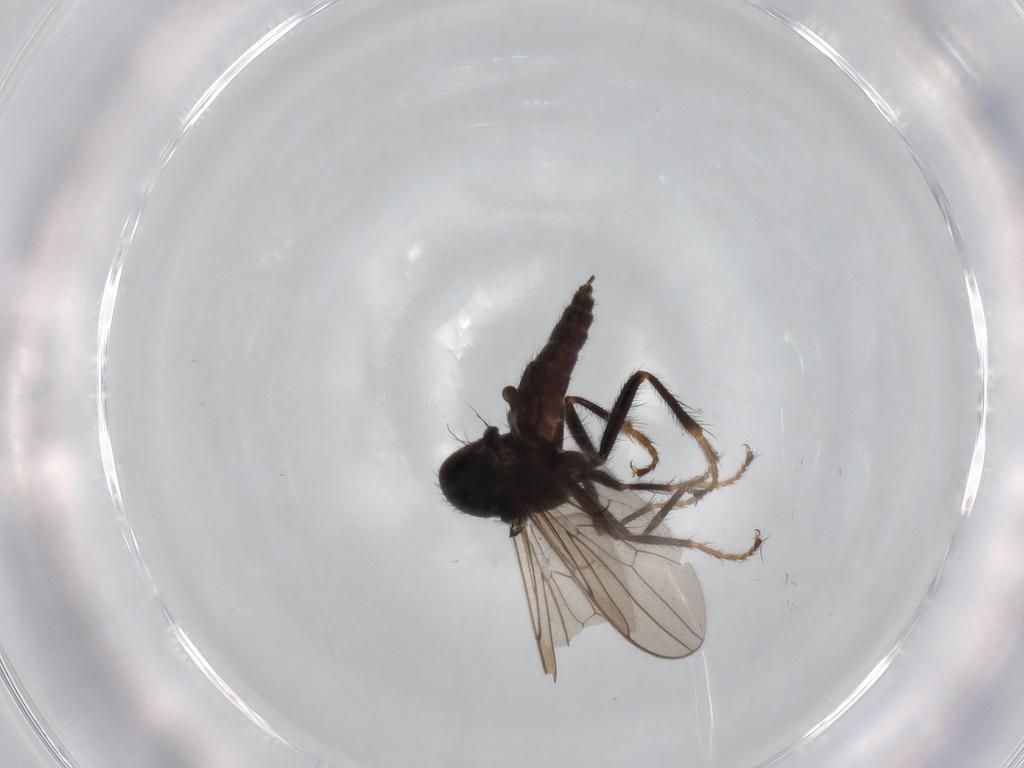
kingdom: Animalia
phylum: Arthropoda
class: Insecta
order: Diptera
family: Hybotidae
